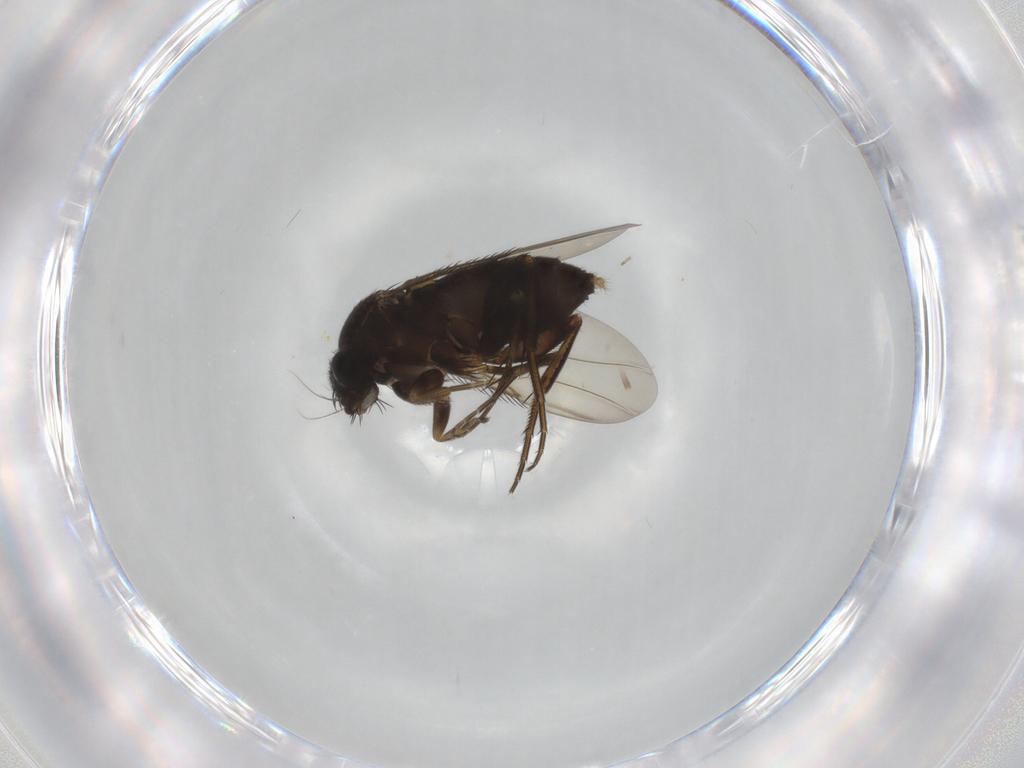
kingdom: Animalia
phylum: Arthropoda
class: Insecta
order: Diptera
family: Phoridae
